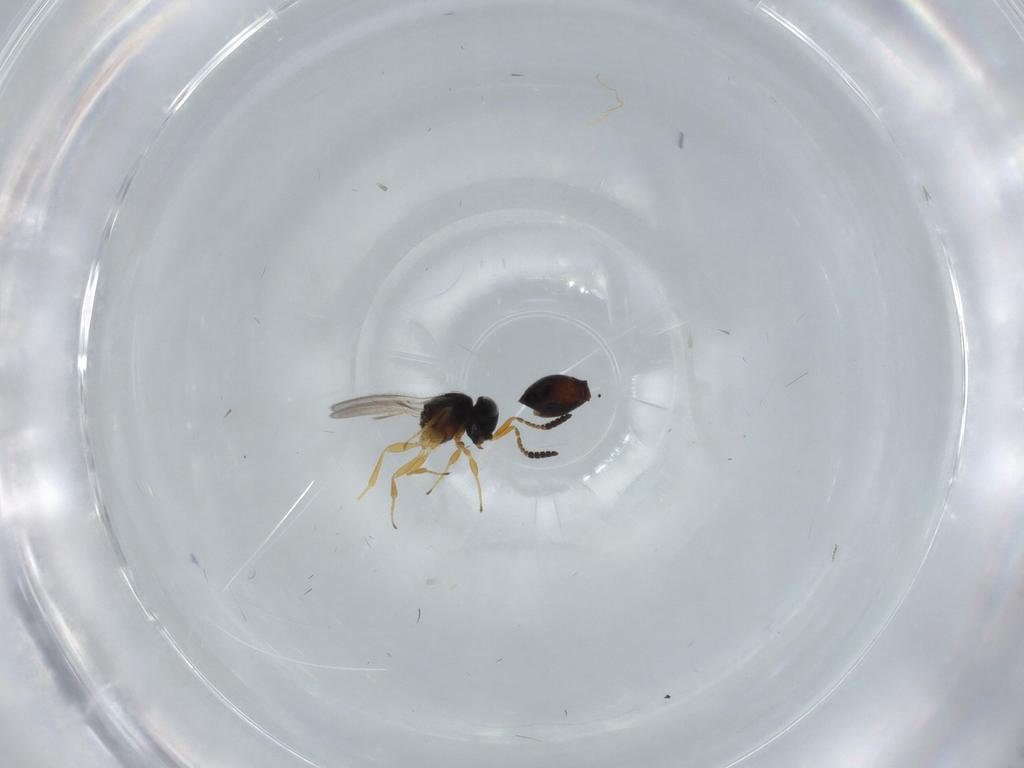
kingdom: Animalia
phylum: Arthropoda
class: Insecta
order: Hymenoptera
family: Scelionidae
